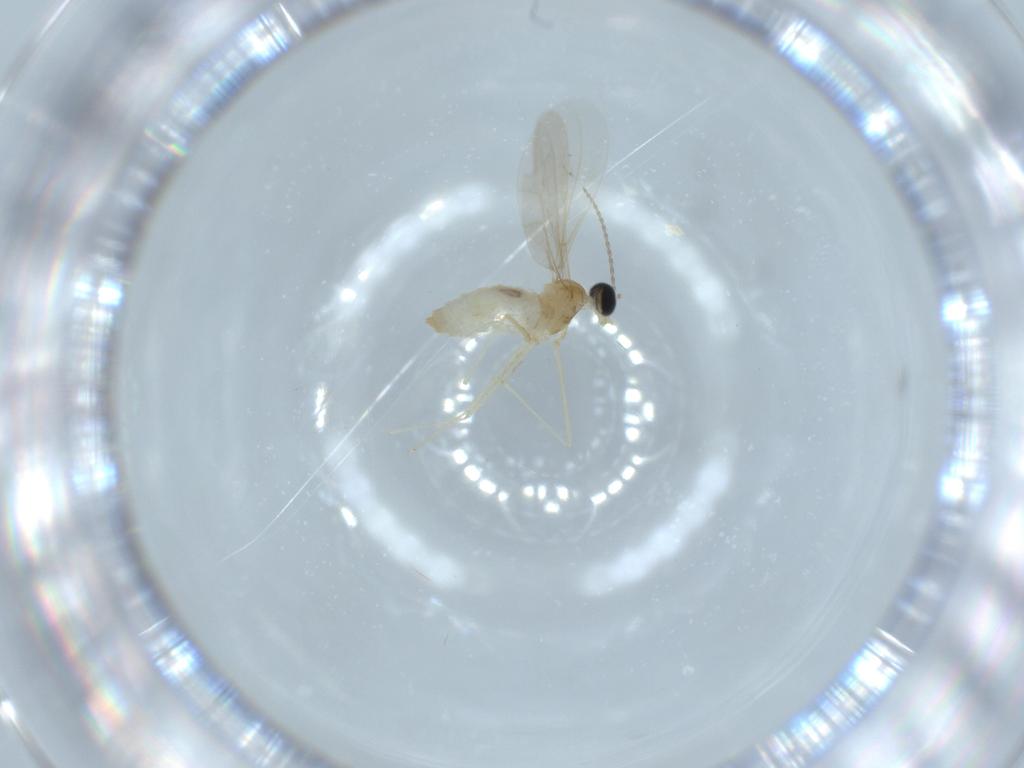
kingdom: Animalia
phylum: Arthropoda
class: Insecta
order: Diptera
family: Cecidomyiidae
